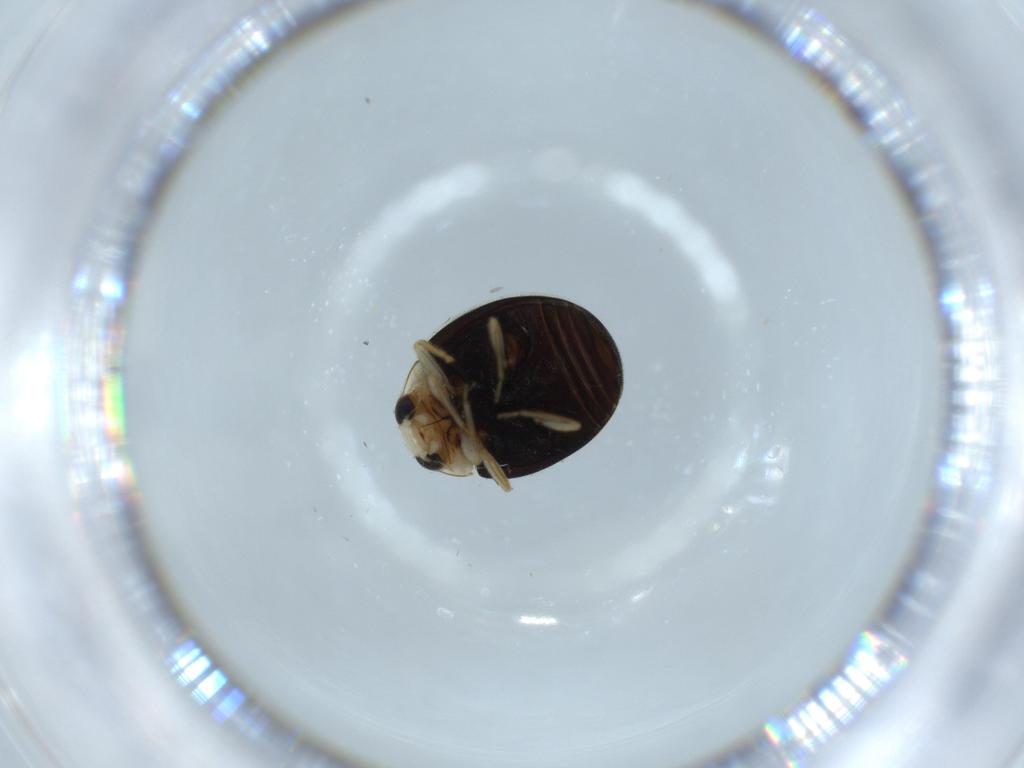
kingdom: Animalia
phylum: Arthropoda
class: Insecta
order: Coleoptera
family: Coccinellidae
